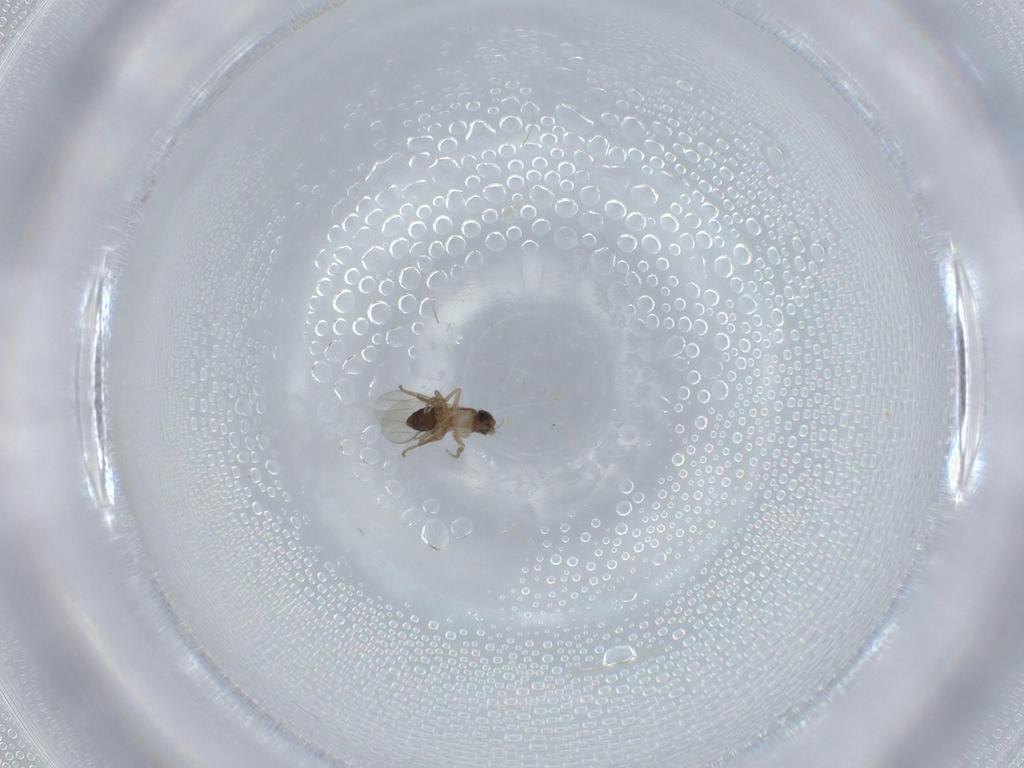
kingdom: Animalia
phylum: Arthropoda
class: Insecta
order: Diptera
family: Phoridae
